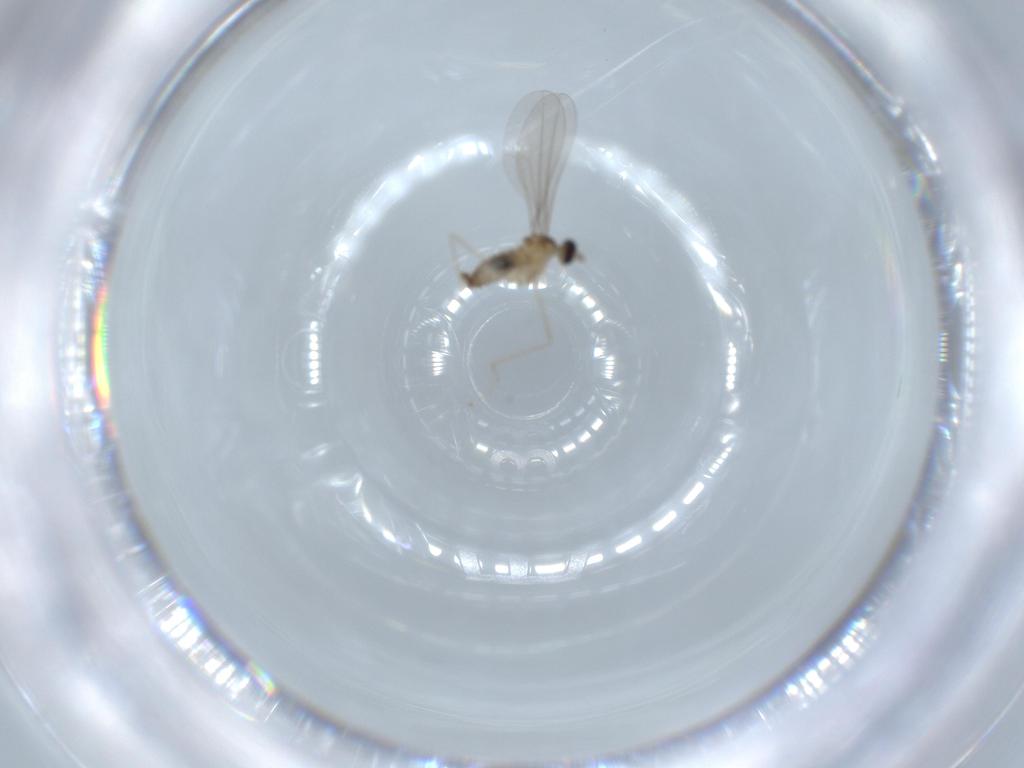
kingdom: Animalia
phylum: Arthropoda
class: Insecta
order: Diptera
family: Cecidomyiidae
